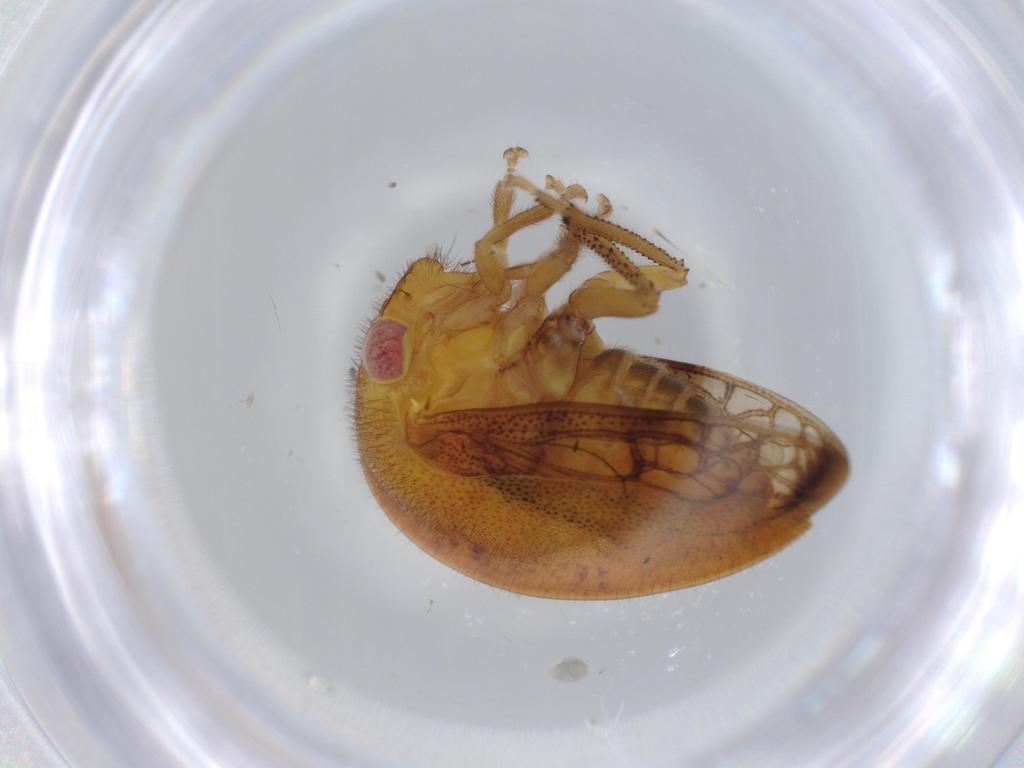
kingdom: Animalia
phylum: Arthropoda
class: Insecta
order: Hemiptera
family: Membracidae
